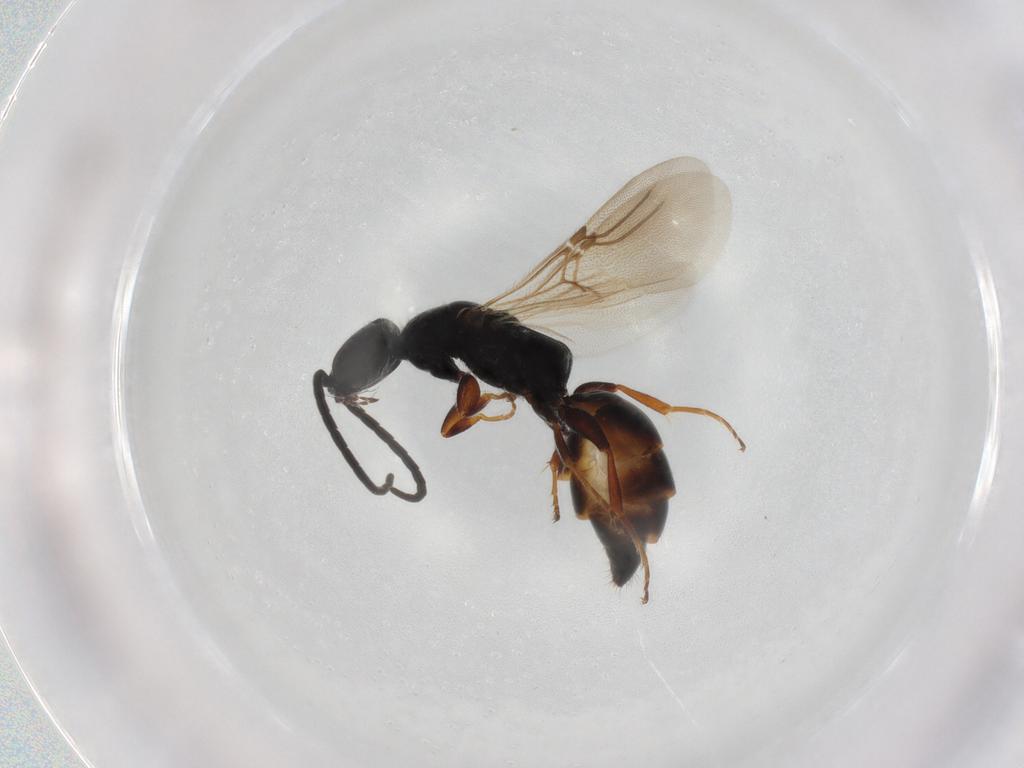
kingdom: Animalia
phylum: Arthropoda
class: Insecta
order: Hymenoptera
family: Bethylidae
